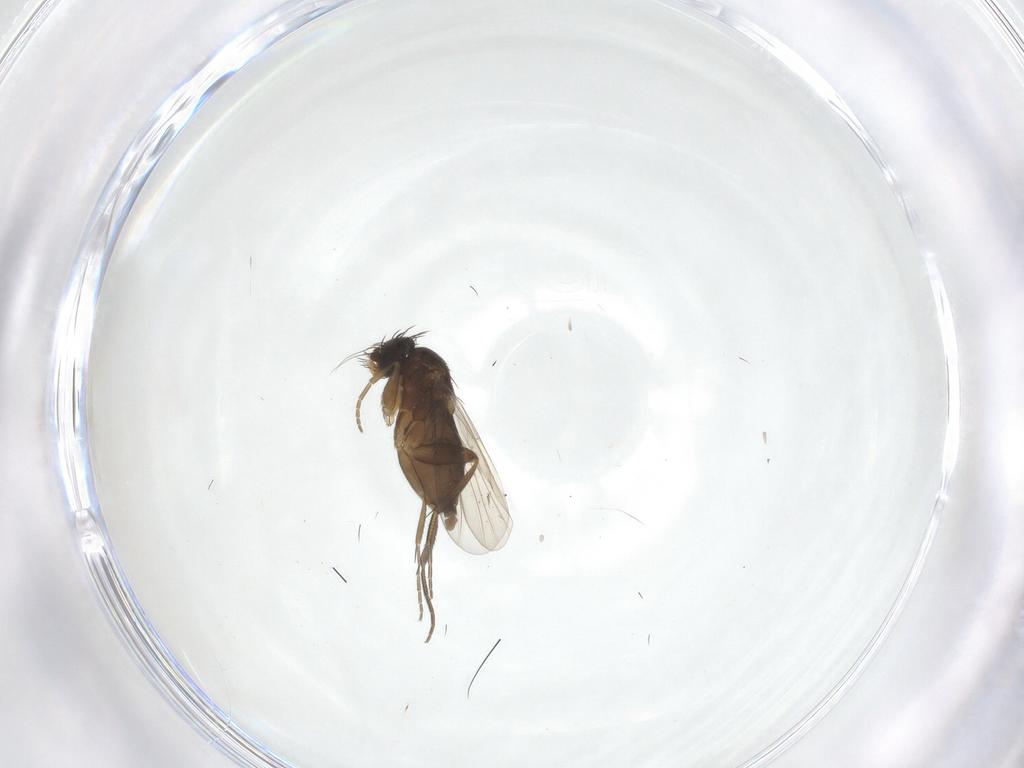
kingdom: Animalia
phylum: Arthropoda
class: Insecta
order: Diptera
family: Phoridae
